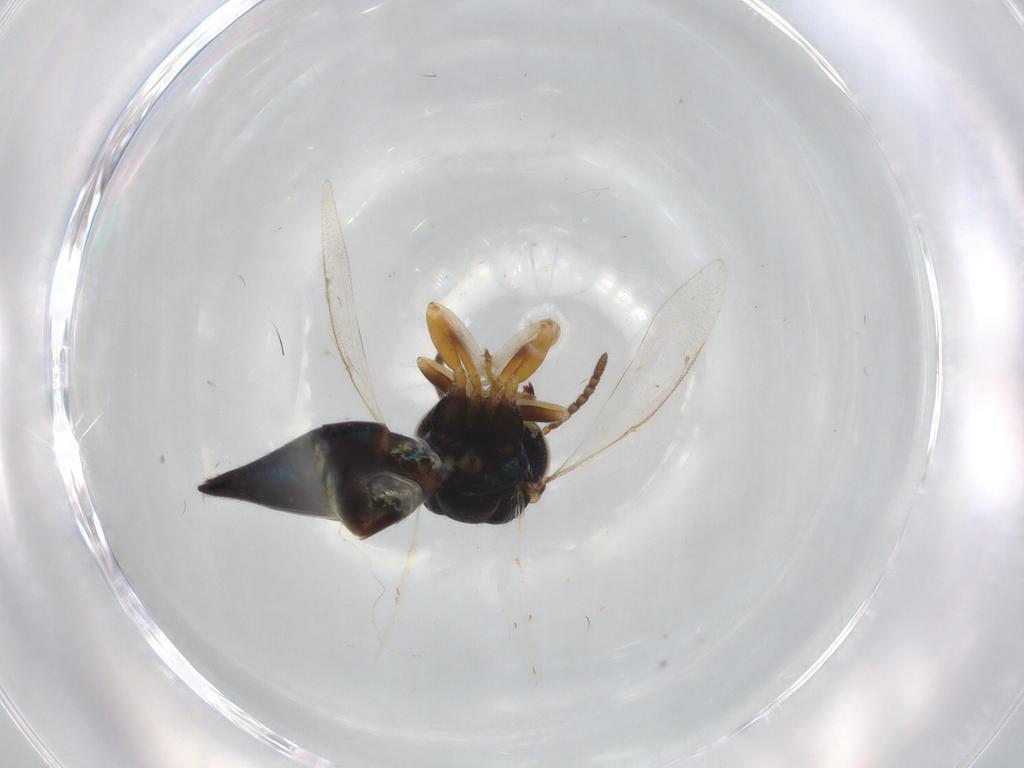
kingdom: Animalia
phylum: Arthropoda
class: Insecta
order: Hymenoptera
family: Pteromalidae
